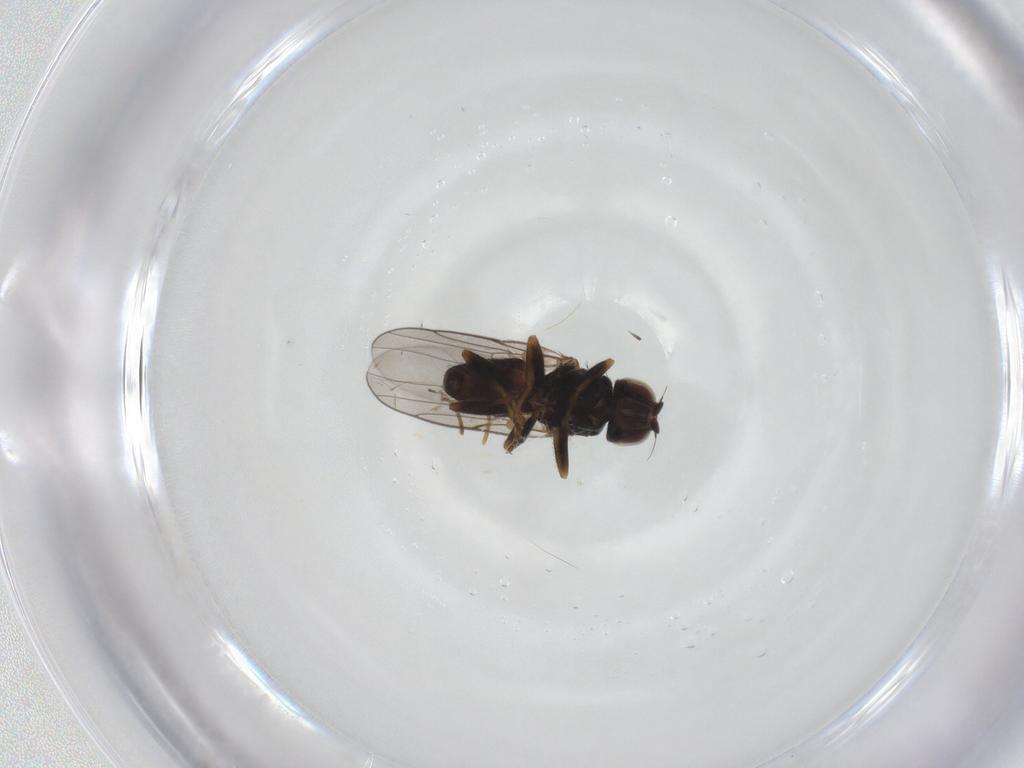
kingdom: Animalia
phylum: Arthropoda
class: Insecta
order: Diptera
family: Chloropidae
